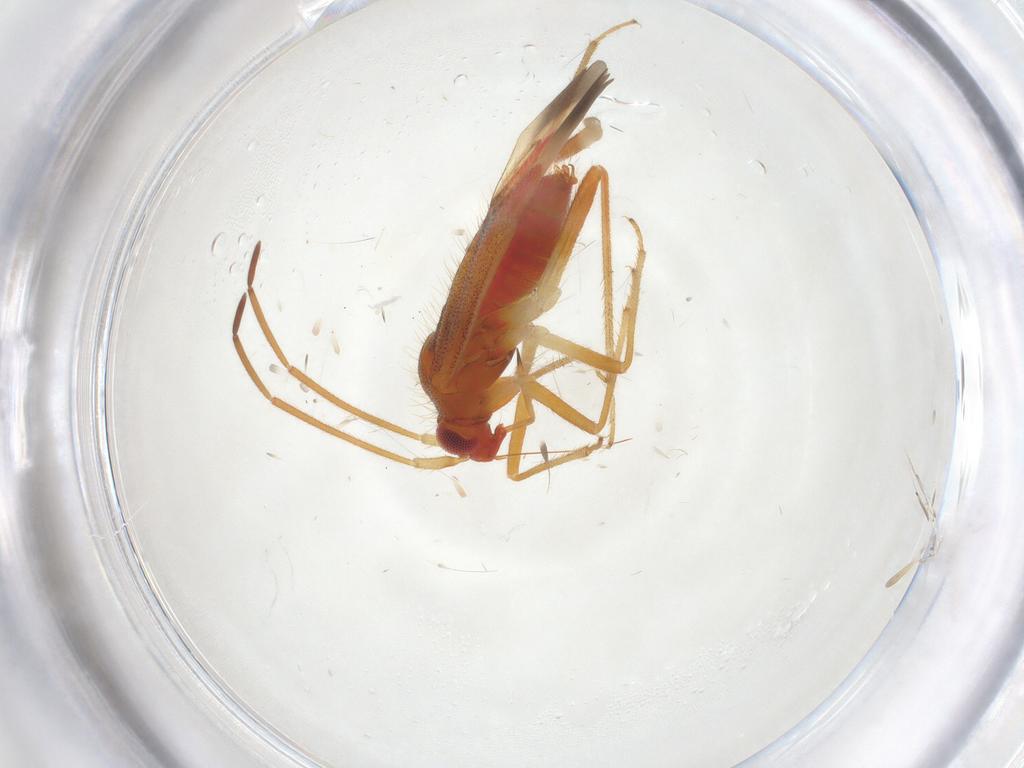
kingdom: Animalia
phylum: Arthropoda
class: Insecta
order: Hemiptera
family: Miridae
